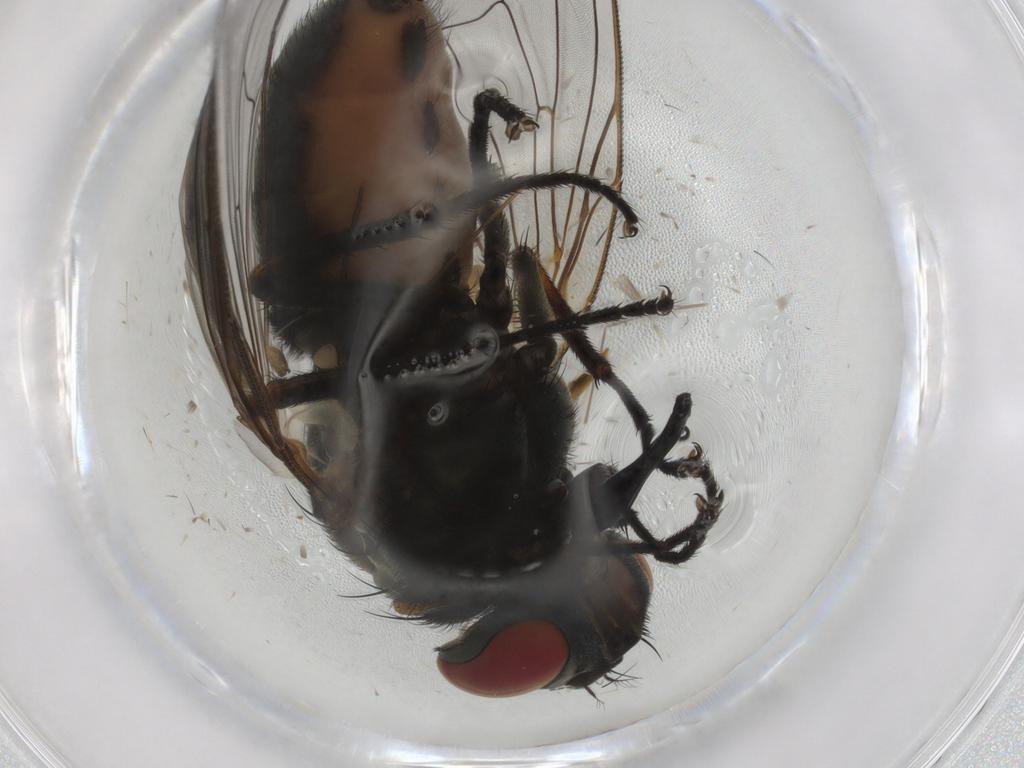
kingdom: Animalia
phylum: Arthropoda
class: Insecta
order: Diptera
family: Muscidae
